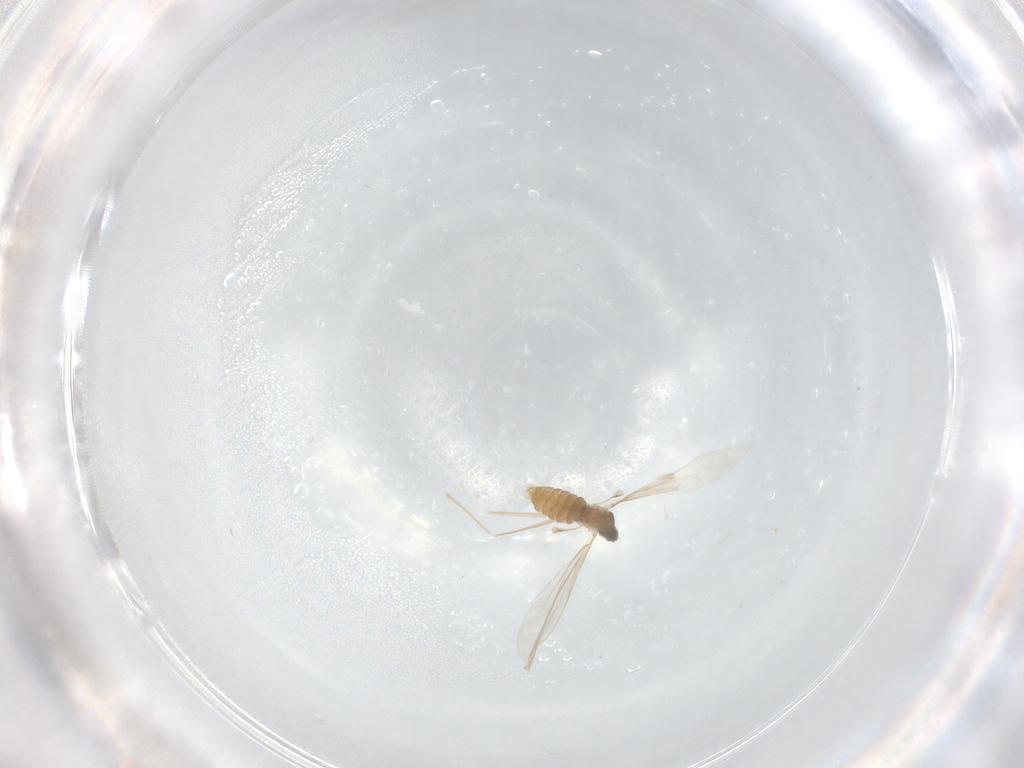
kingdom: Animalia
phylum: Arthropoda
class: Insecta
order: Diptera
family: Cecidomyiidae
